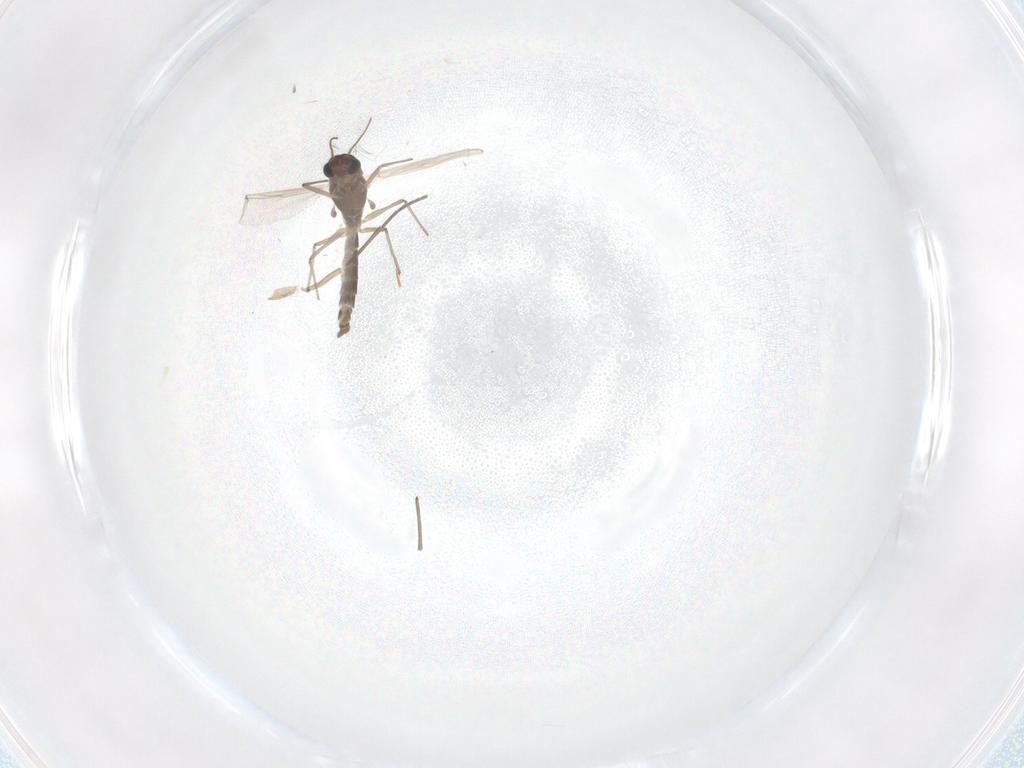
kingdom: Animalia
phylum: Arthropoda
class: Insecta
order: Diptera
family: Chironomidae
